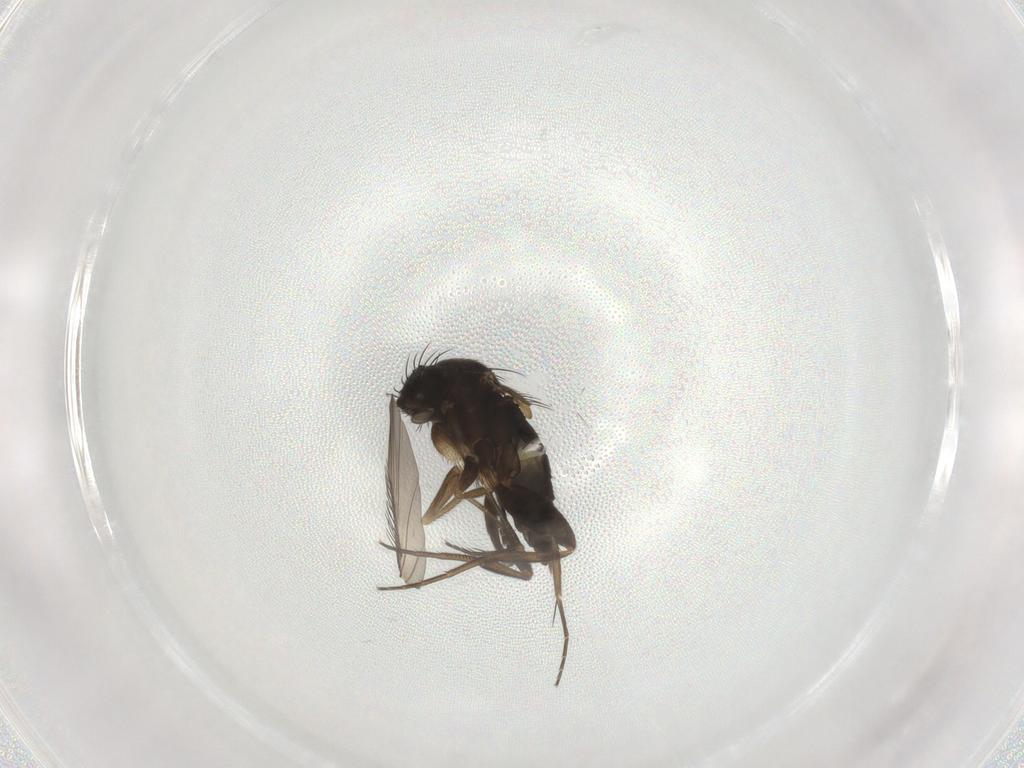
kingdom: Animalia
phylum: Arthropoda
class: Insecta
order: Diptera
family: Phoridae
